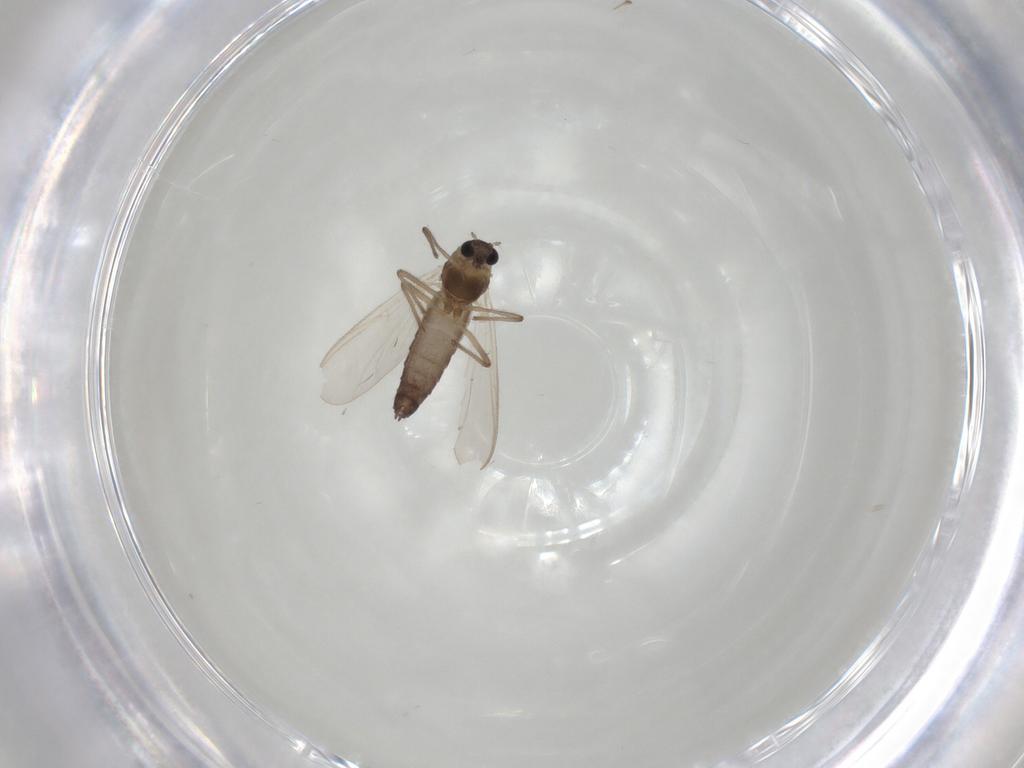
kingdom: Animalia
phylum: Arthropoda
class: Insecta
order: Diptera
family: Chironomidae
